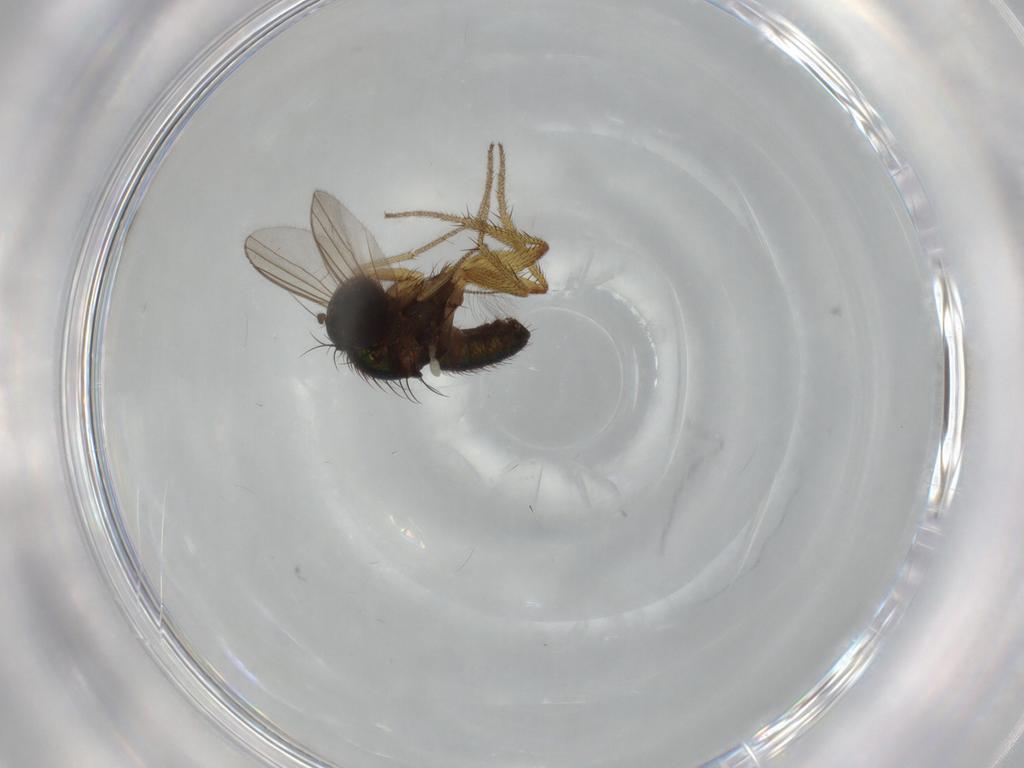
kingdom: Animalia
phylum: Arthropoda
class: Insecta
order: Diptera
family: Dolichopodidae
